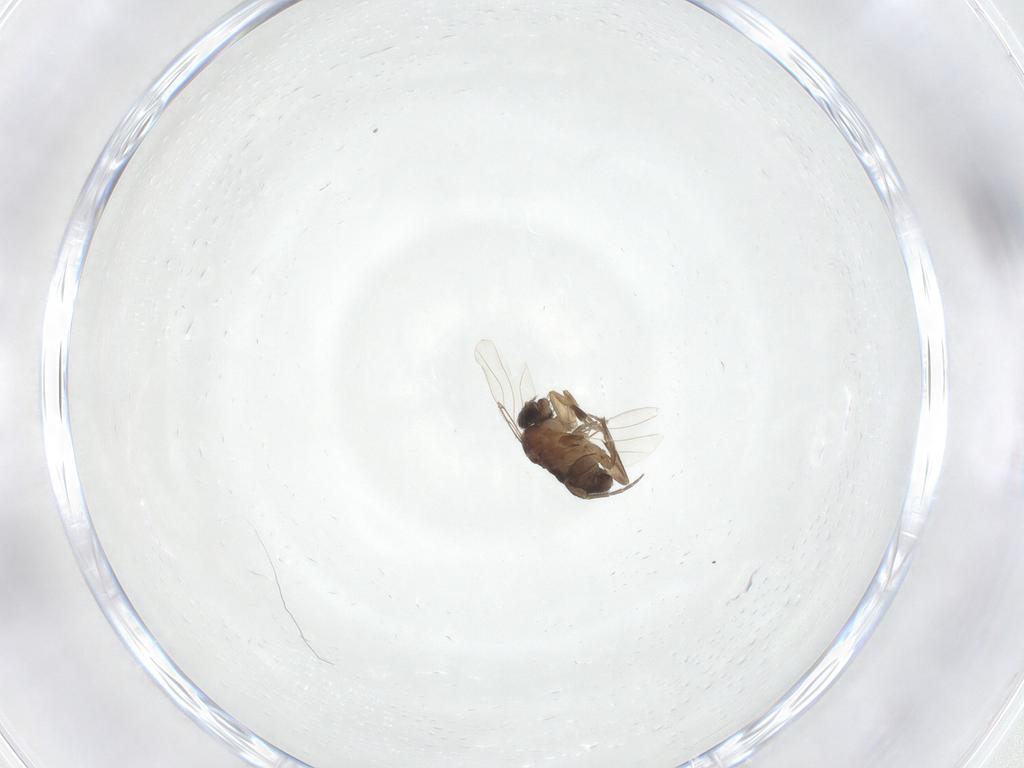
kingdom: Animalia
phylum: Arthropoda
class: Insecta
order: Diptera
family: Phoridae
